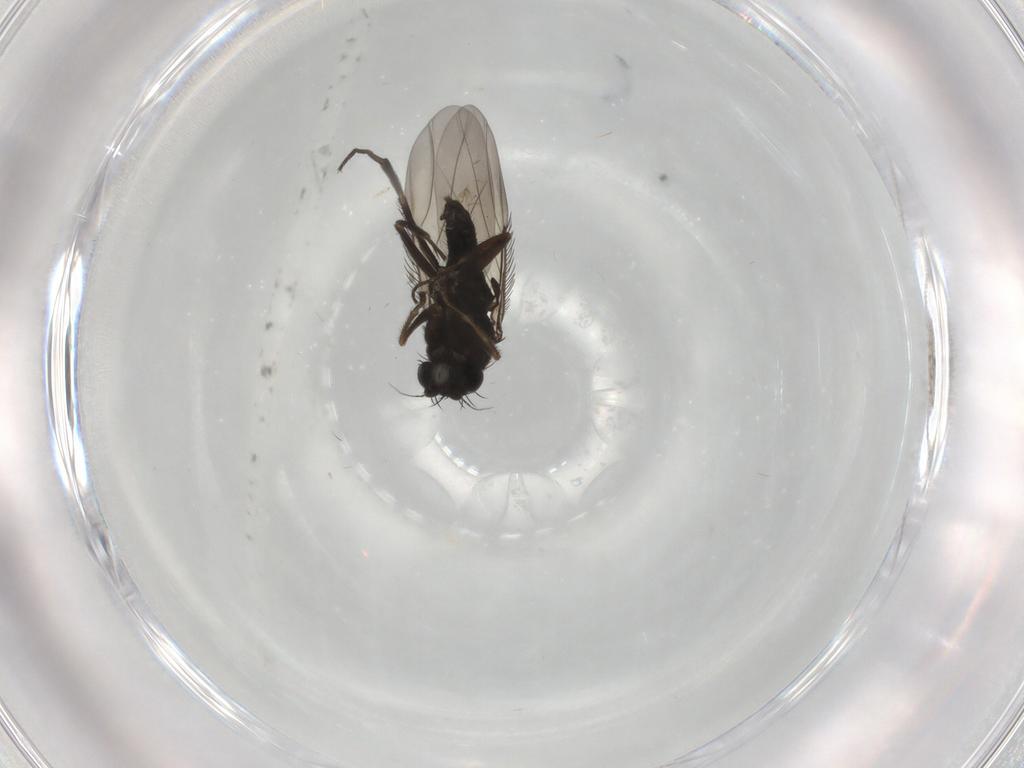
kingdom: Animalia
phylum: Arthropoda
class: Insecta
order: Diptera
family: Phoridae
